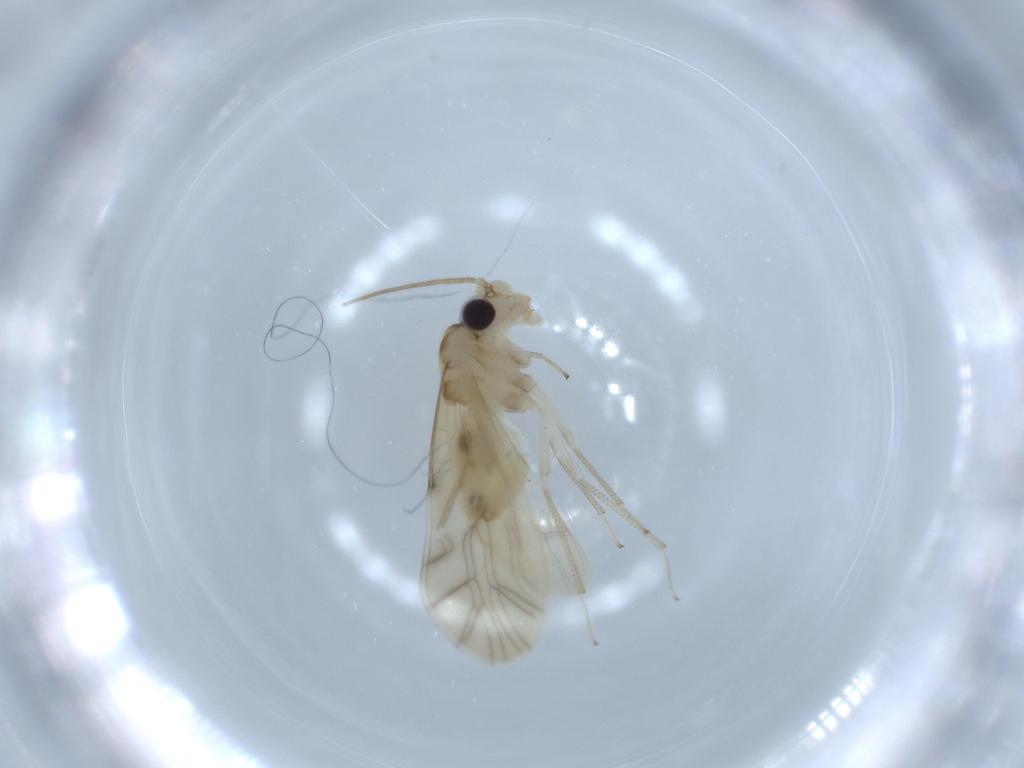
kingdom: Animalia
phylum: Arthropoda
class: Insecta
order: Psocodea
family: Caeciliusidae
